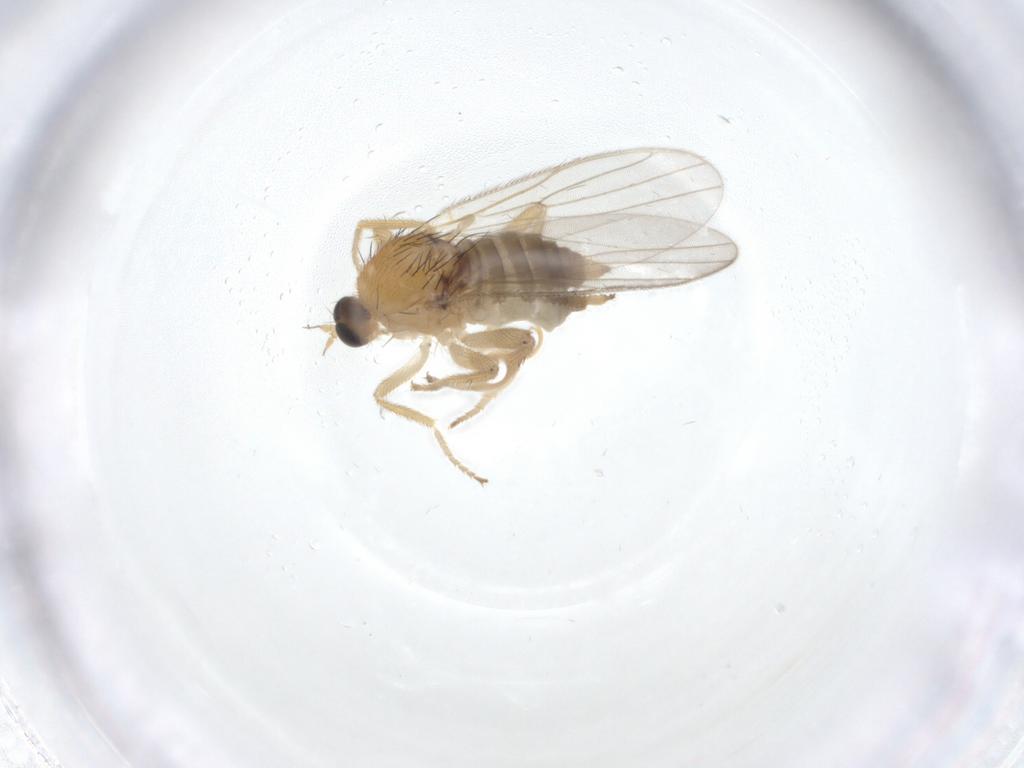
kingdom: Animalia
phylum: Arthropoda
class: Insecta
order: Diptera
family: Hybotidae
